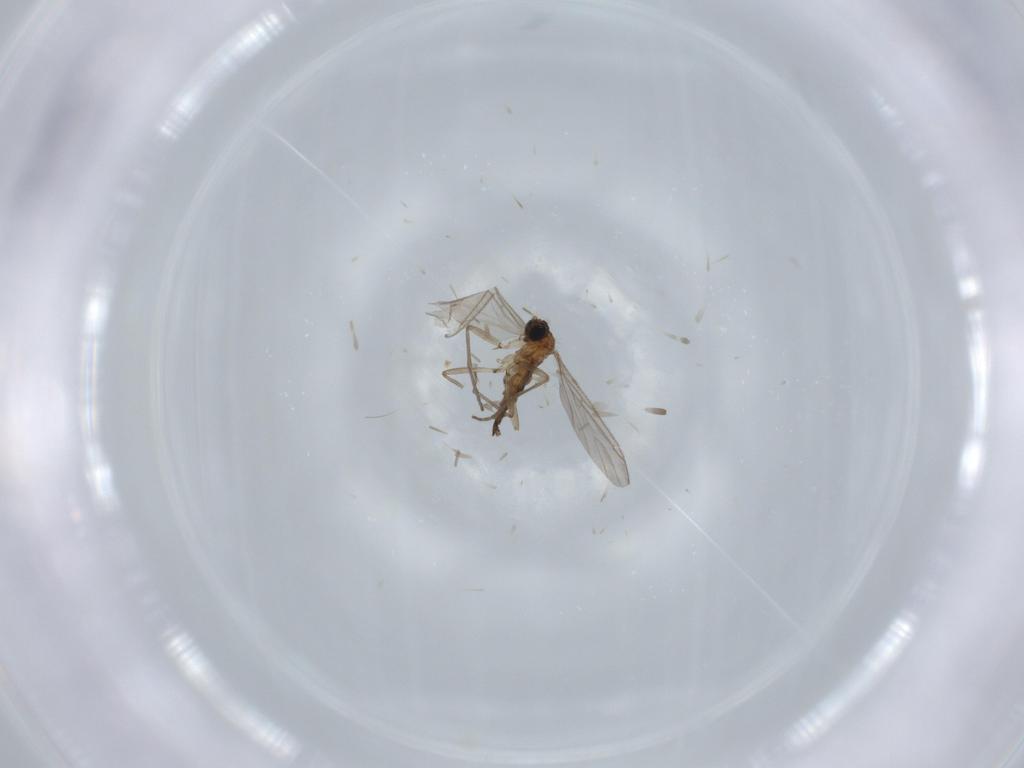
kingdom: Animalia
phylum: Arthropoda
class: Insecta
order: Diptera
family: Sciaridae
